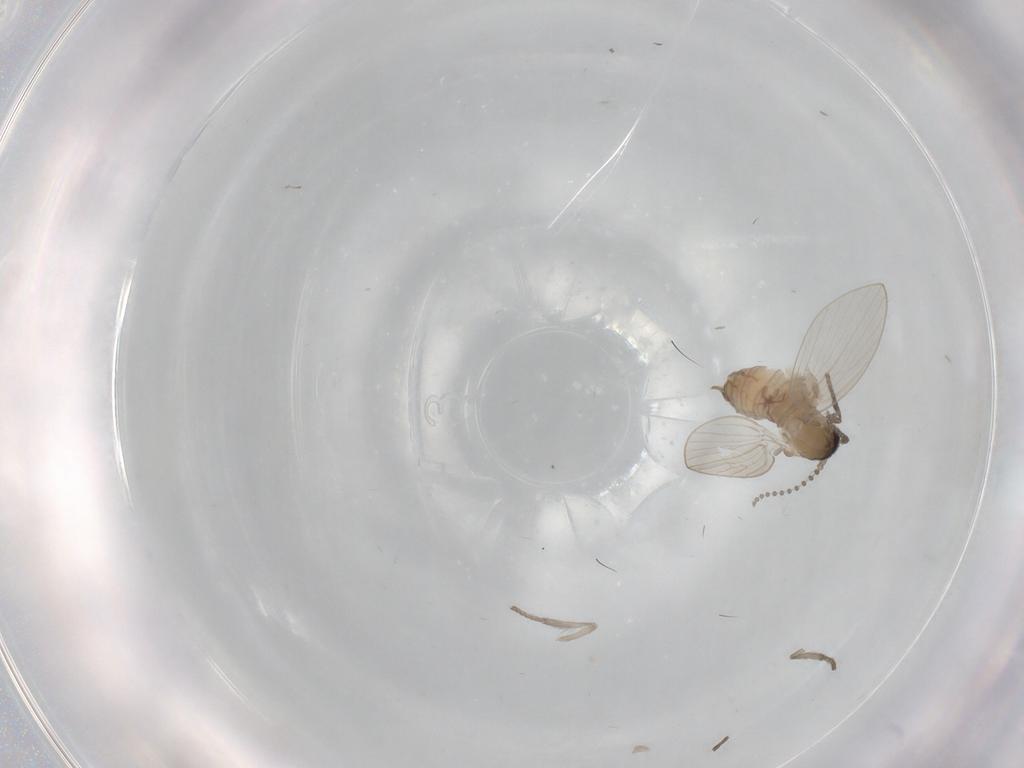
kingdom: Animalia
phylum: Arthropoda
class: Insecta
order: Diptera
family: Psychodidae
